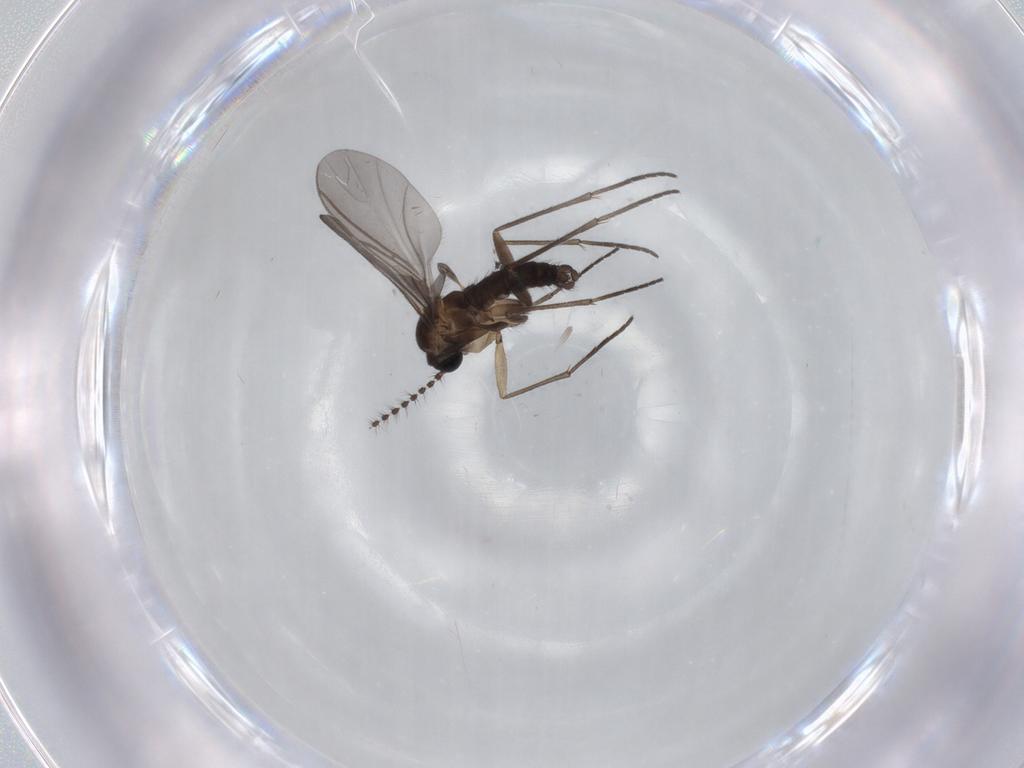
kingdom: Animalia
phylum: Arthropoda
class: Insecta
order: Diptera
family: Sciaridae
